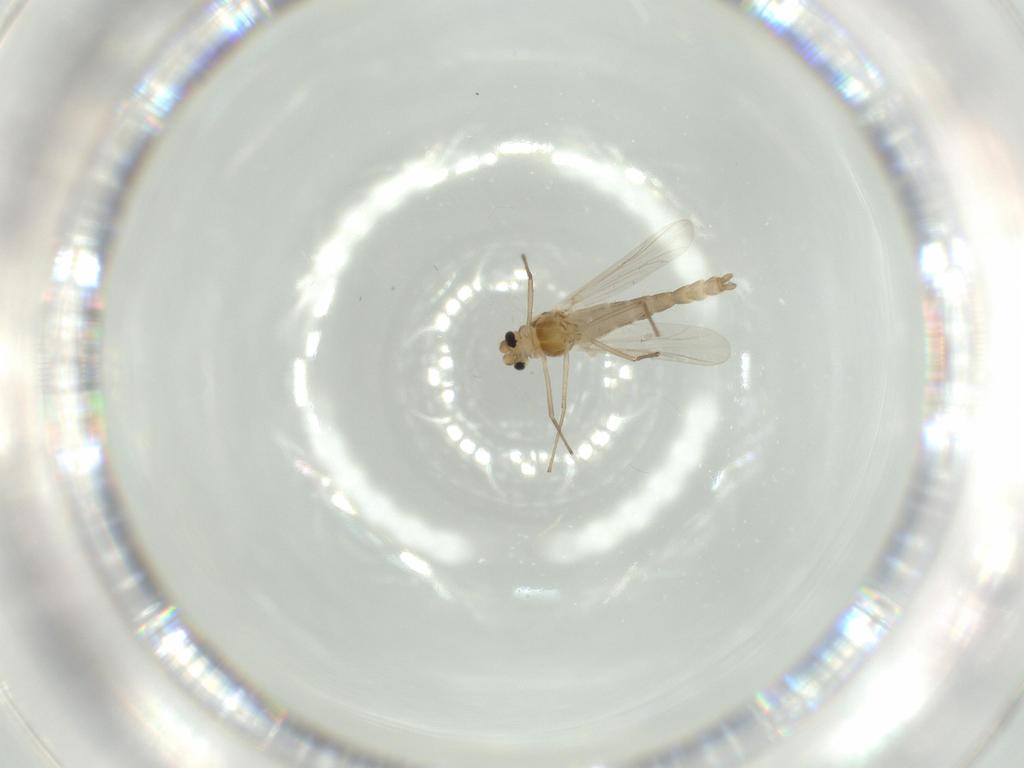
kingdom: Animalia
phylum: Arthropoda
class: Insecta
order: Diptera
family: Chironomidae
